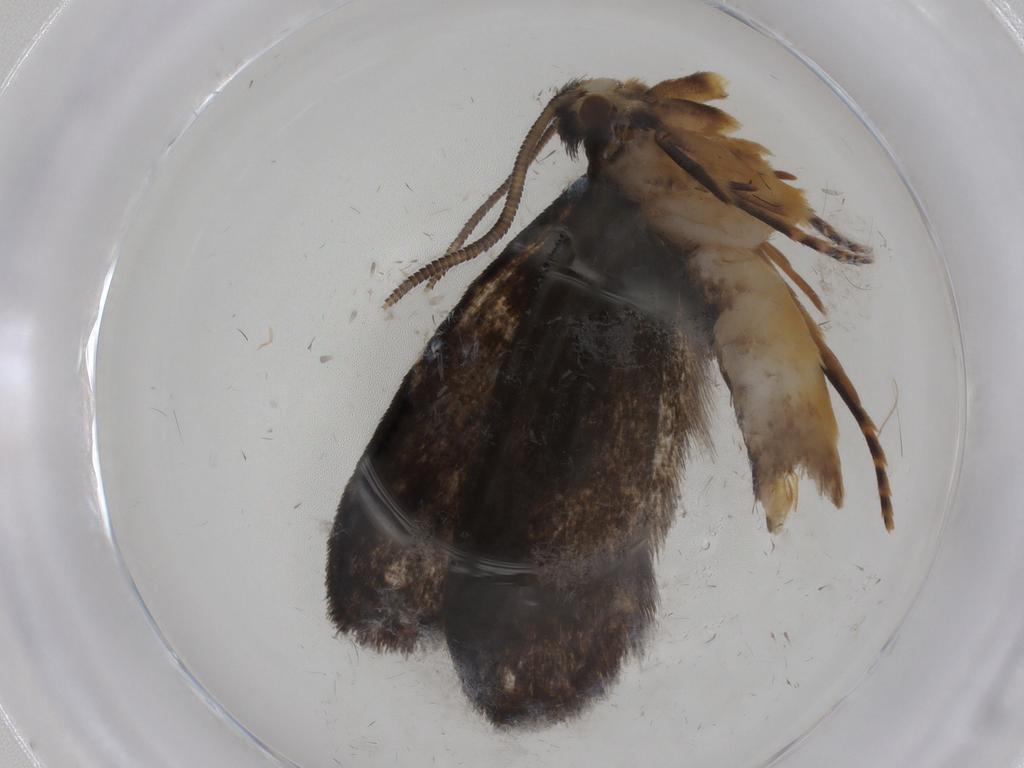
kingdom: Animalia
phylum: Arthropoda
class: Insecta
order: Lepidoptera
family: Dryadaulidae
